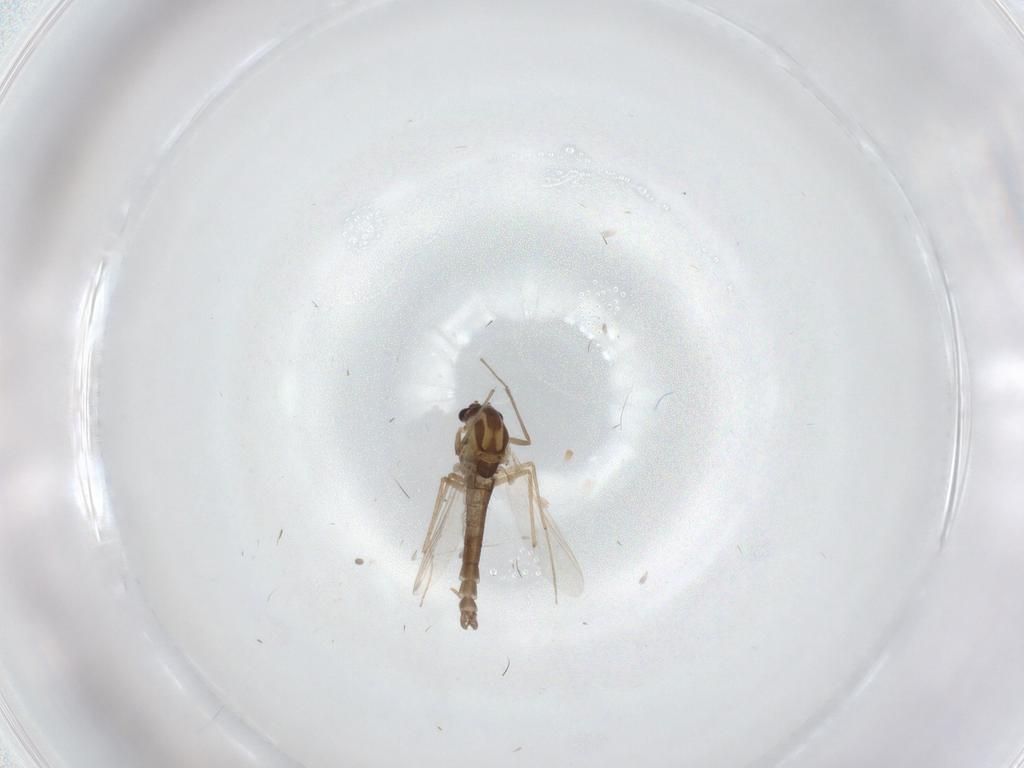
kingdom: Animalia
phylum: Arthropoda
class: Insecta
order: Diptera
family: Chironomidae
